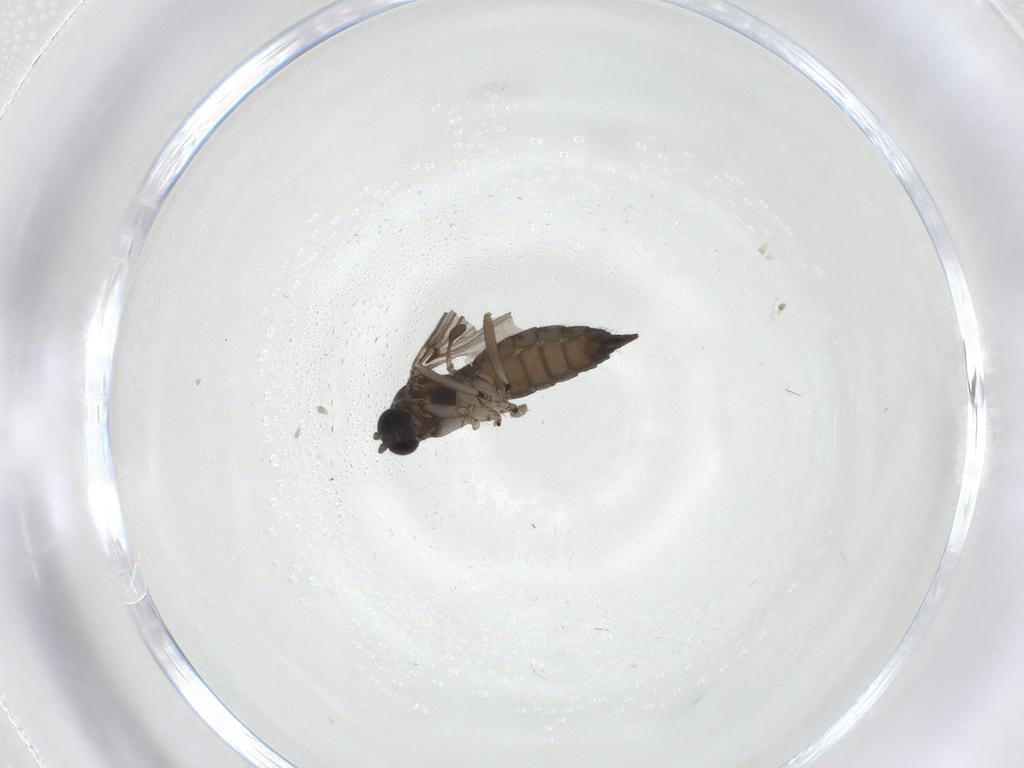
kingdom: Animalia
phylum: Arthropoda
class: Insecta
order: Diptera
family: Sciaridae
